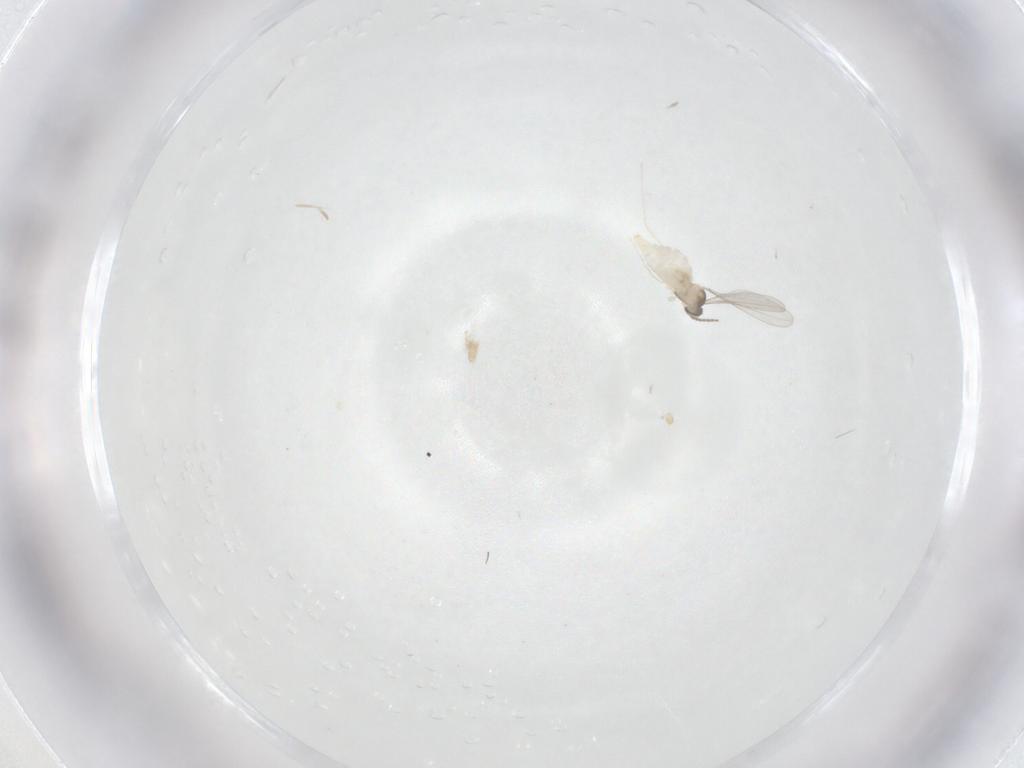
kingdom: Animalia
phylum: Arthropoda
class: Insecta
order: Diptera
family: Cecidomyiidae
